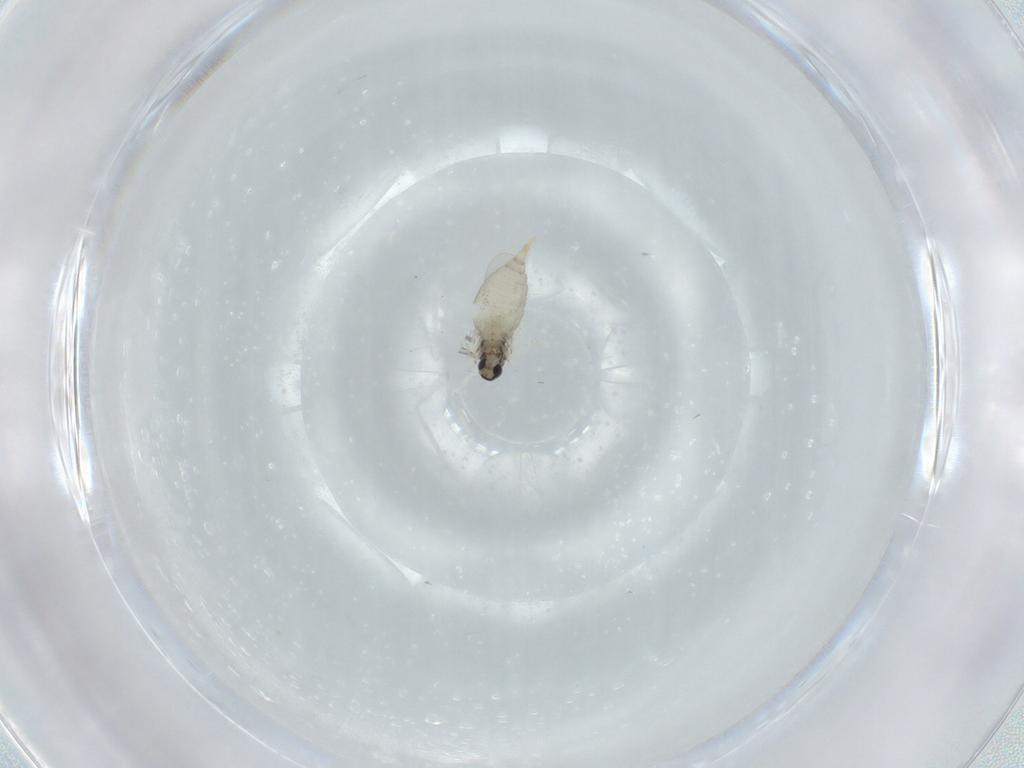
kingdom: Animalia
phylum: Arthropoda
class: Insecta
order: Diptera
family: Cecidomyiidae
